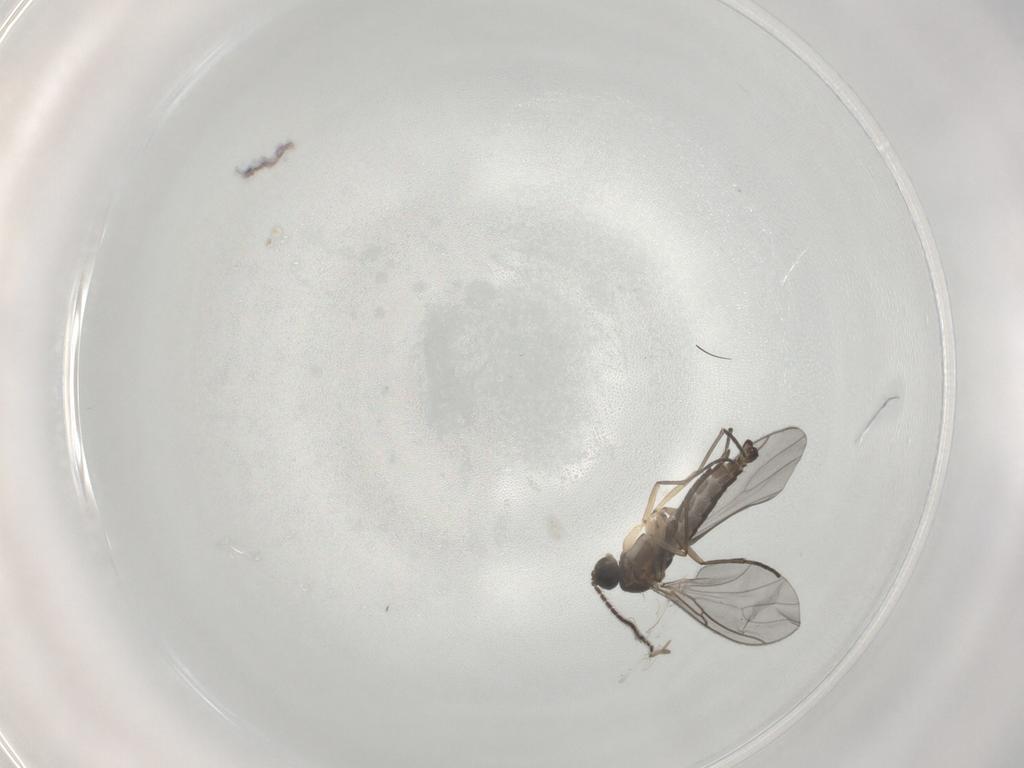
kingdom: Animalia
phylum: Arthropoda
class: Insecta
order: Diptera
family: Sciaridae
